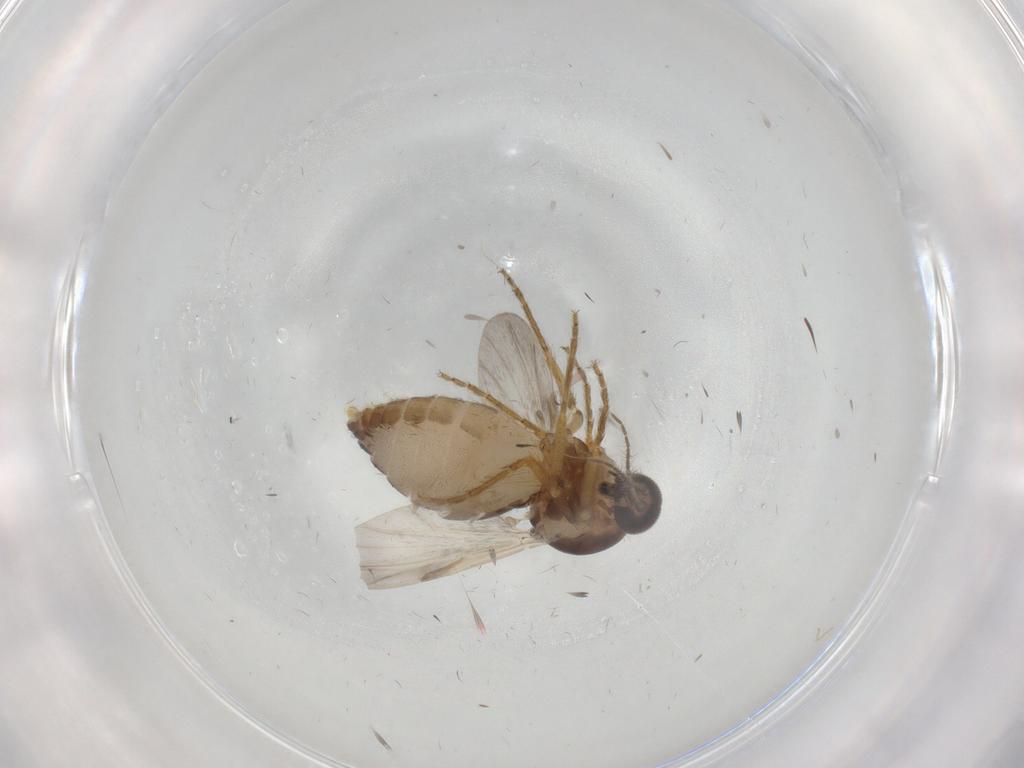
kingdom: Animalia
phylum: Arthropoda
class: Insecta
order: Diptera
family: Ceratopogonidae
